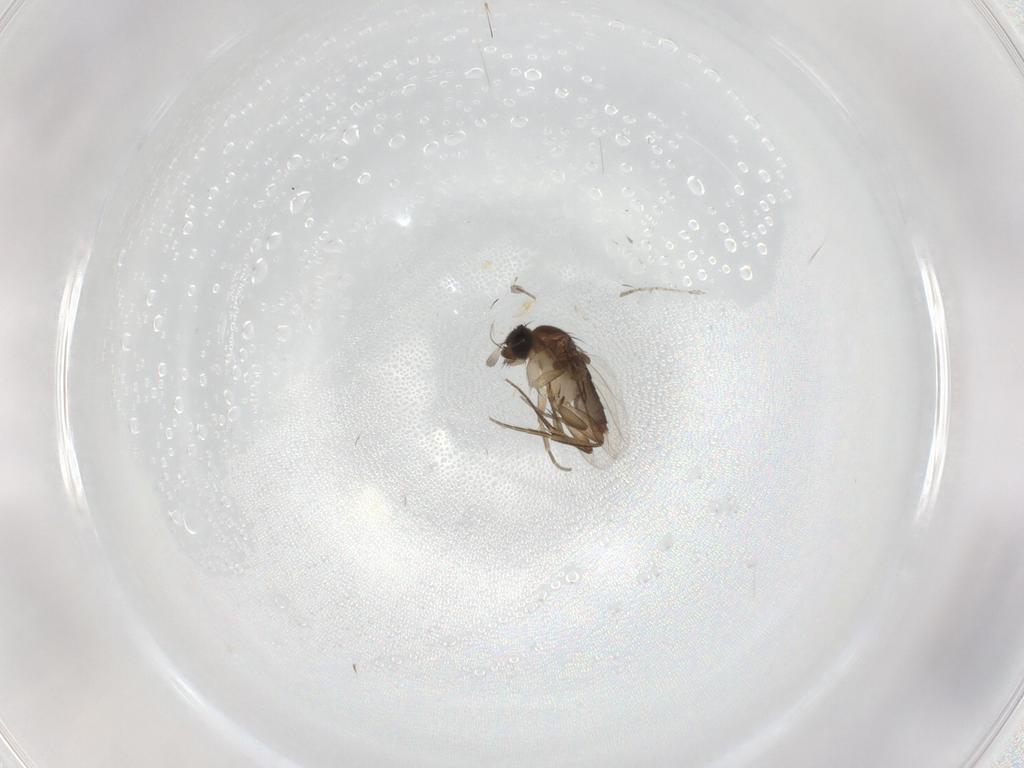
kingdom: Animalia
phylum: Arthropoda
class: Insecta
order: Diptera
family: Phoridae
